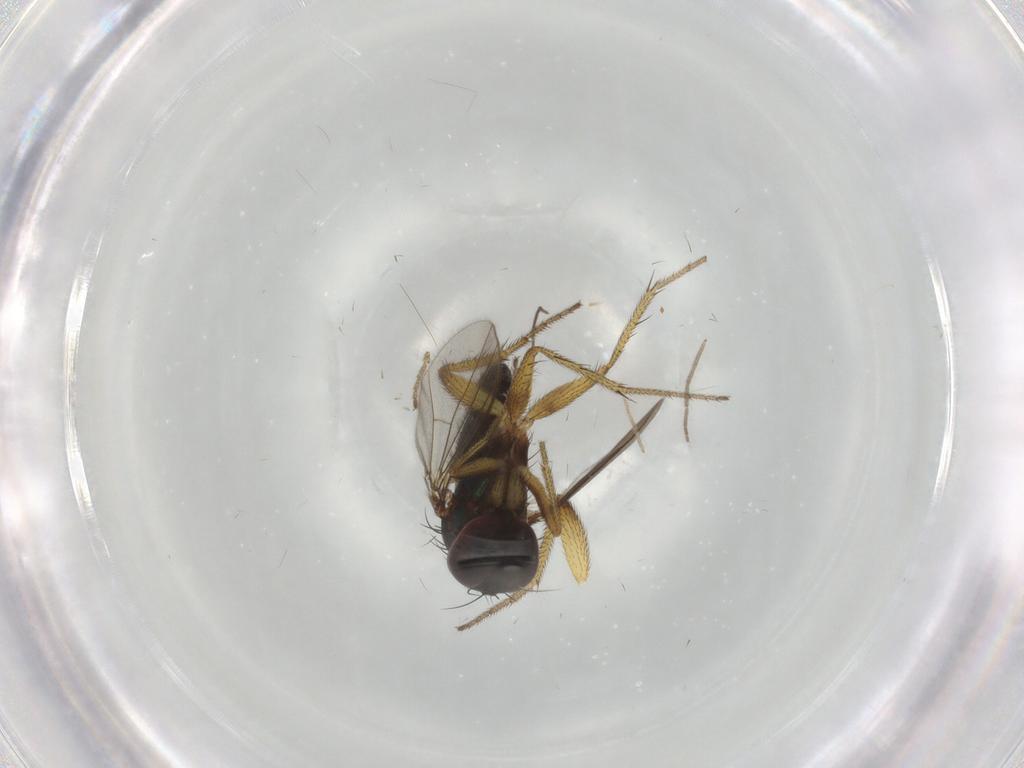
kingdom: Animalia
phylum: Arthropoda
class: Insecta
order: Diptera
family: Dolichopodidae
